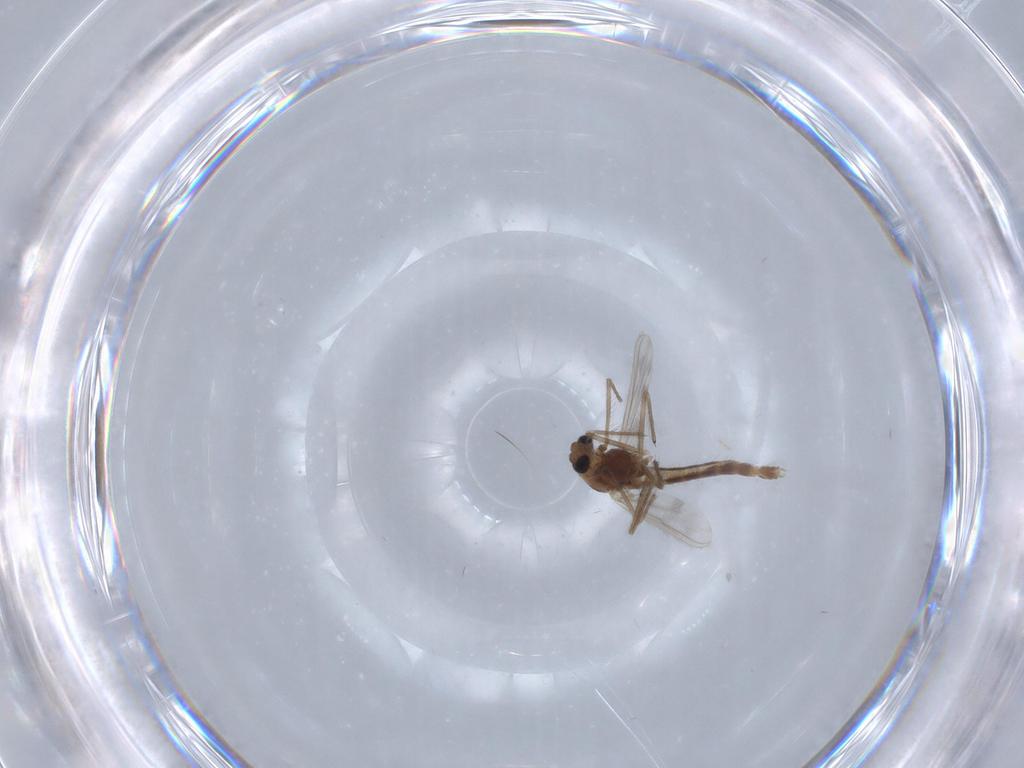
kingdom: Animalia
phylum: Arthropoda
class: Insecta
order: Diptera
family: Chironomidae
